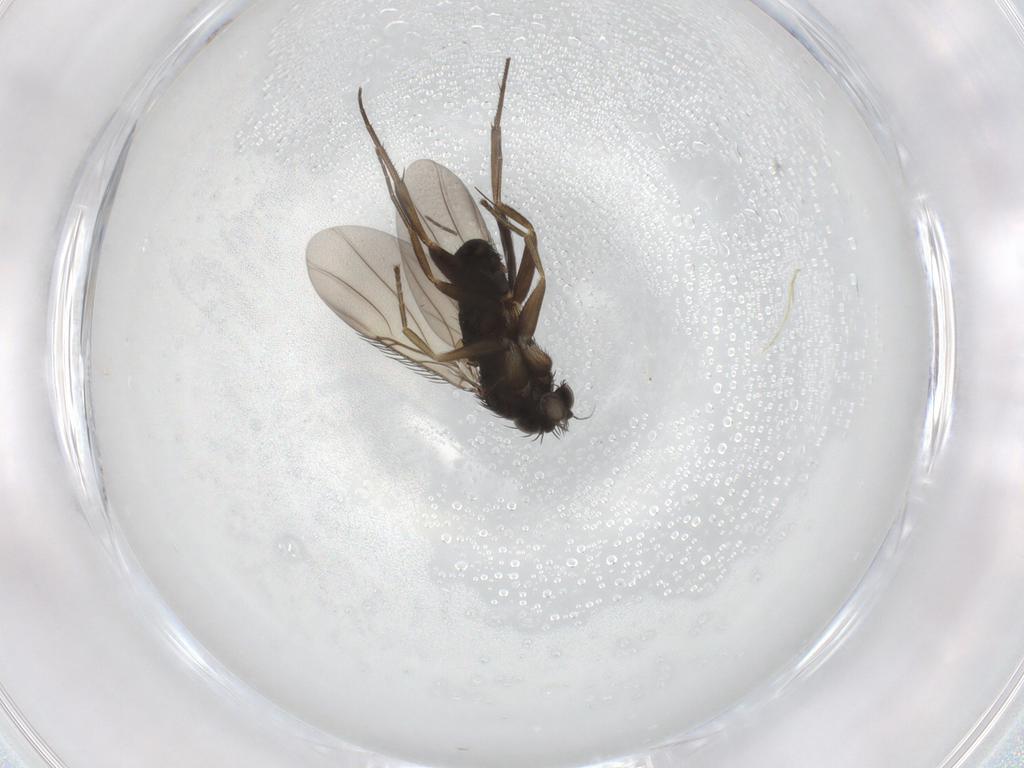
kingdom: Animalia
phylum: Arthropoda
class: Insecta
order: Diptera
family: Phoridae
